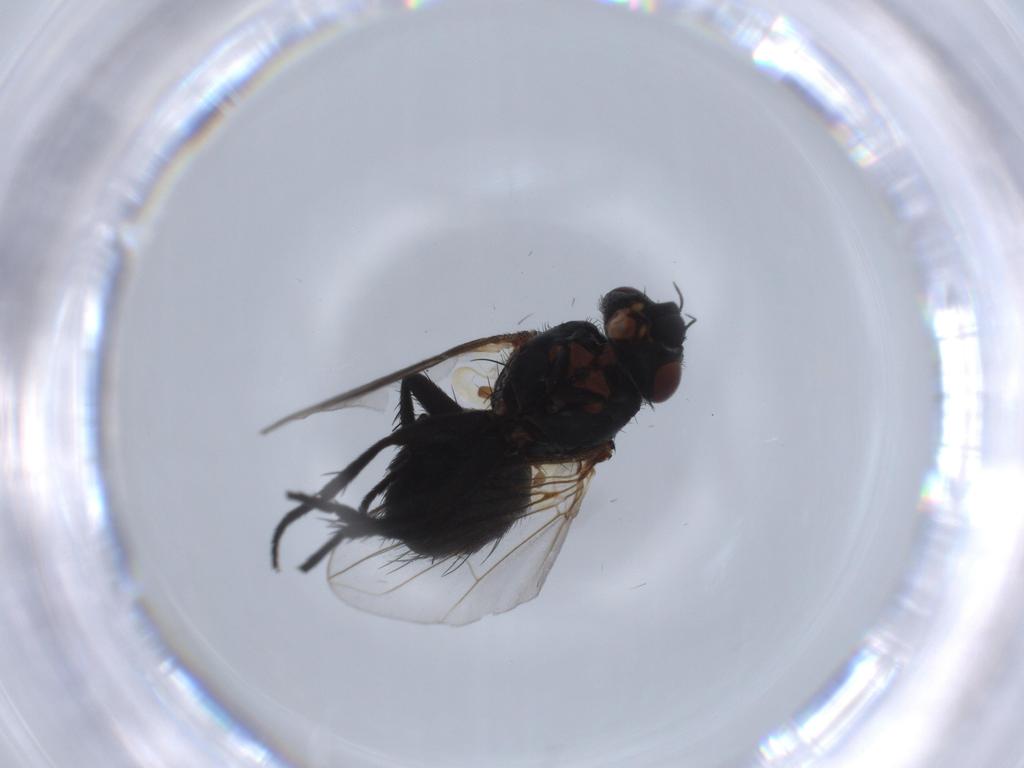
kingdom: Animalia
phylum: Arthropoda
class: Insecta
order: Diptera
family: Tachinidae
